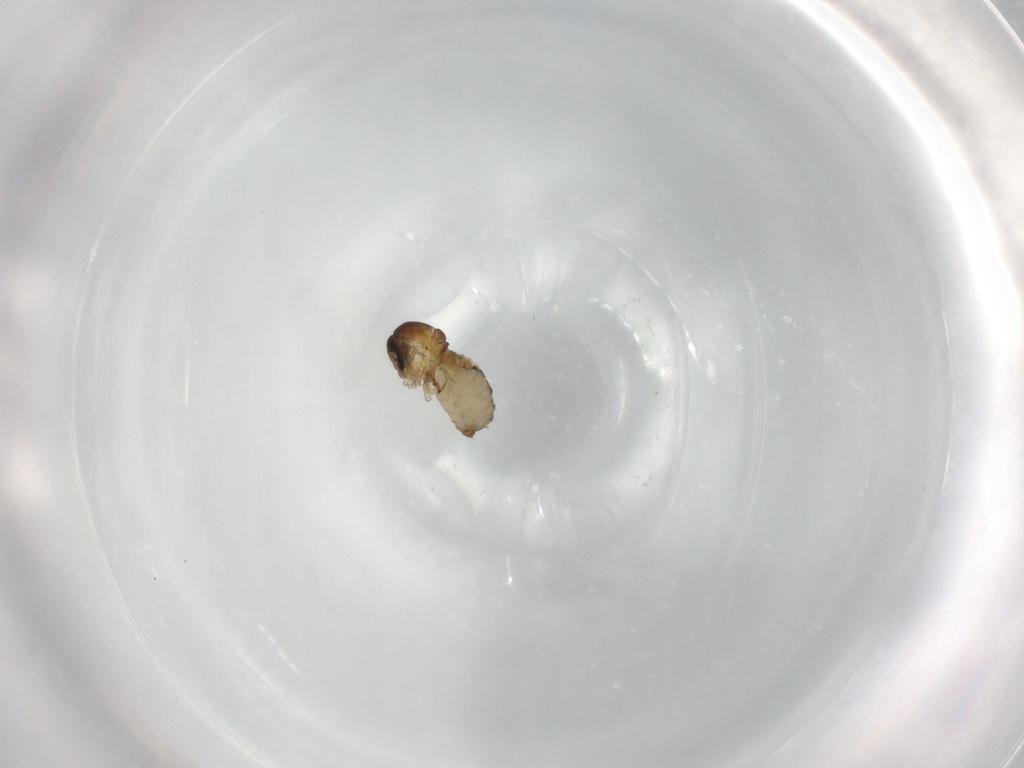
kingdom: Animalia
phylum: Arthropoda
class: Insecta
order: Diptera
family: Psychodidae
